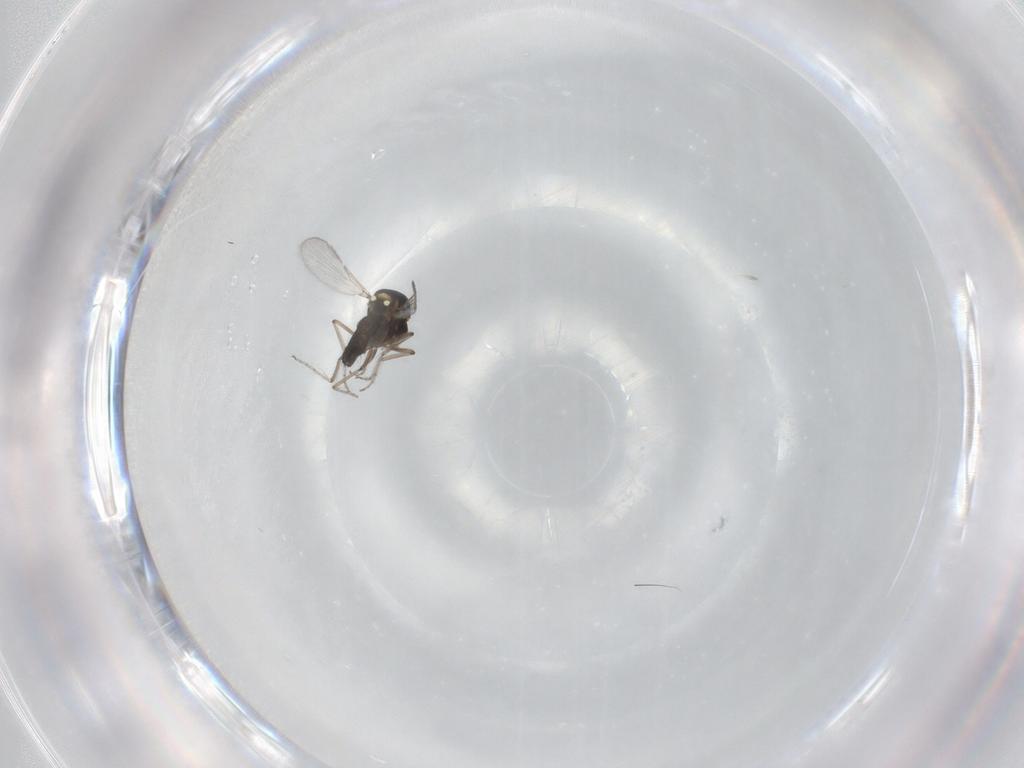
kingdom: Animalia
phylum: Arthropoda
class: Insecta
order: Diptera
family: Ceratopogonidae
